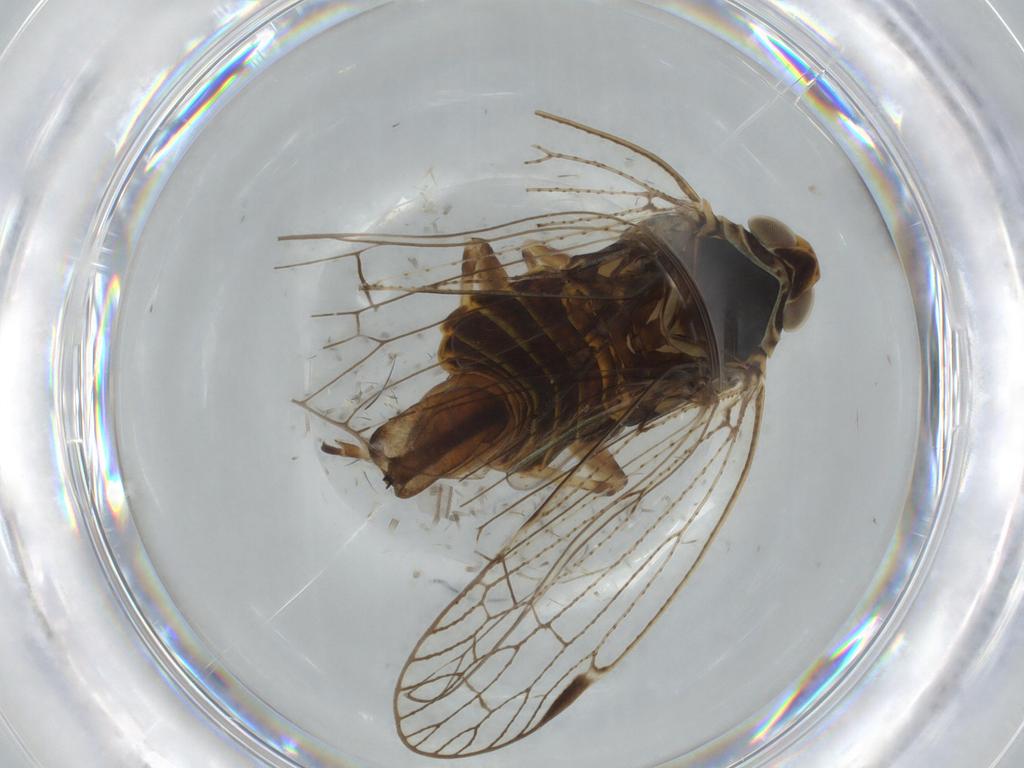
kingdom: Animalia
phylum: Arthropoda
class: Insecta
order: Hemiptera
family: Cixiidae
